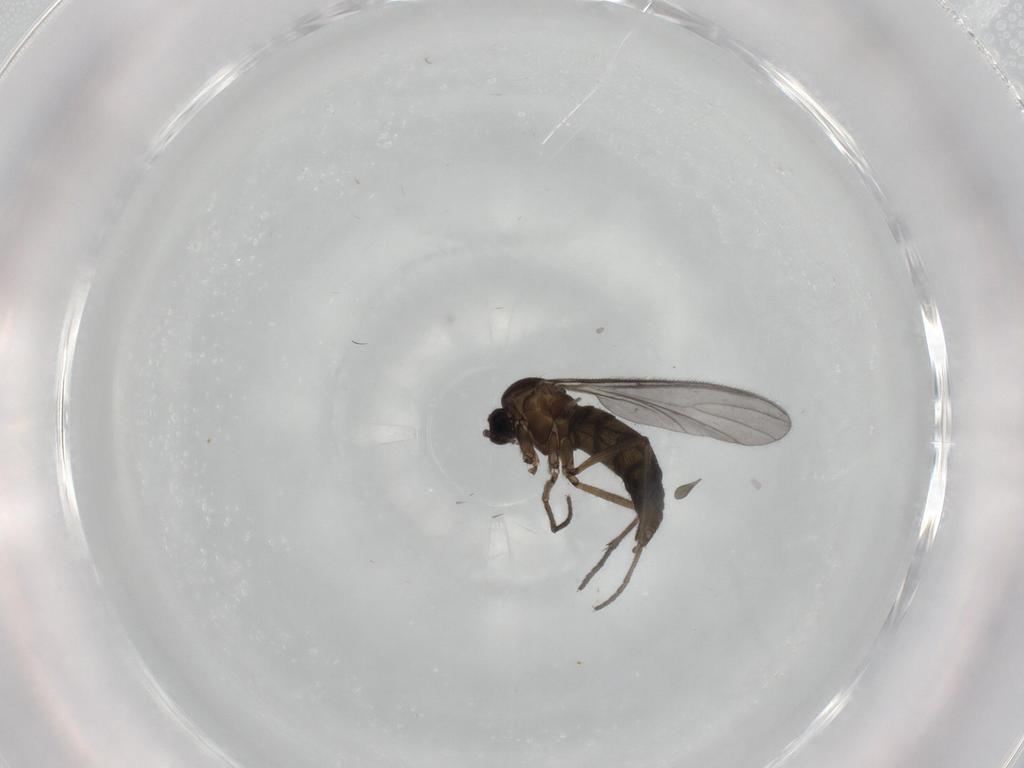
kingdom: Animalia
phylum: Arthropoda
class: Insecta
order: Diptera
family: Sciaridae
